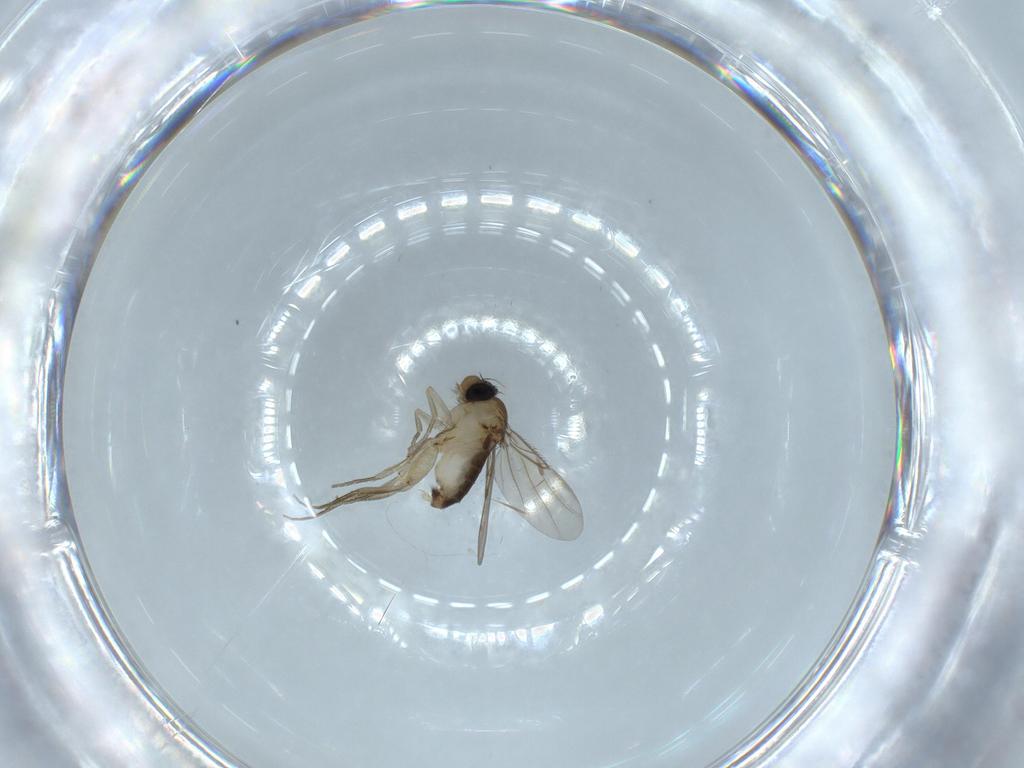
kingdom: Animalia
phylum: Arthropoda
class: Insecta
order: Diptera
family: Phoridae
